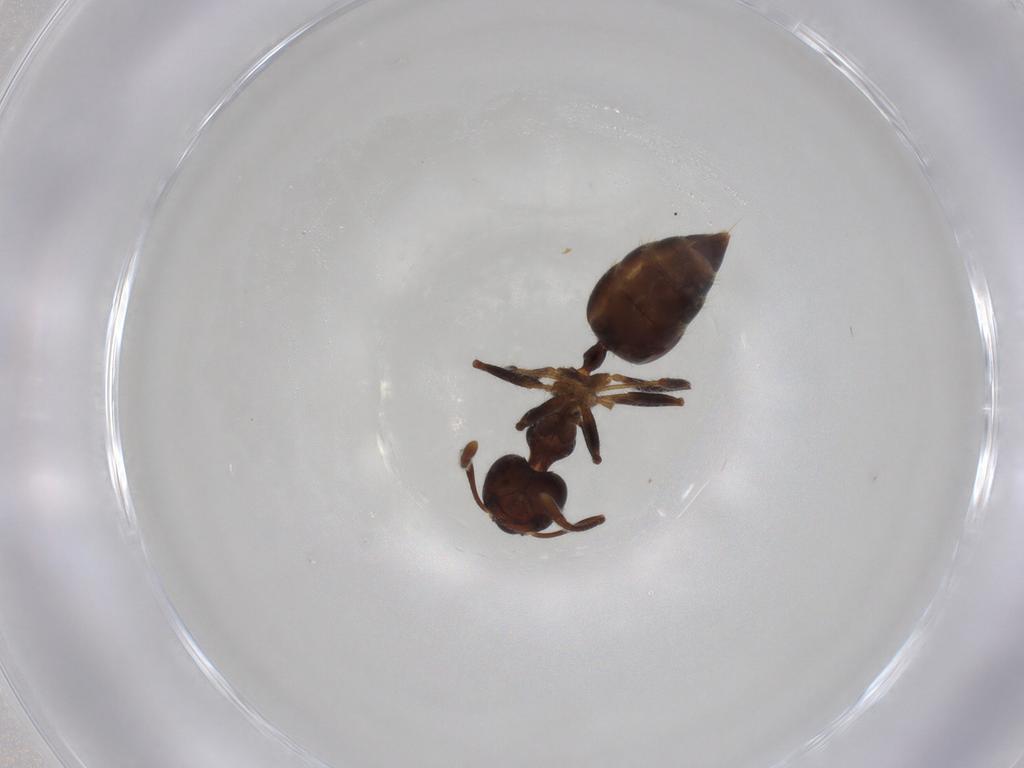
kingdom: Animalia
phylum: Arthropoda
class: Insecta
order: Hymenoptera
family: Formicidae
